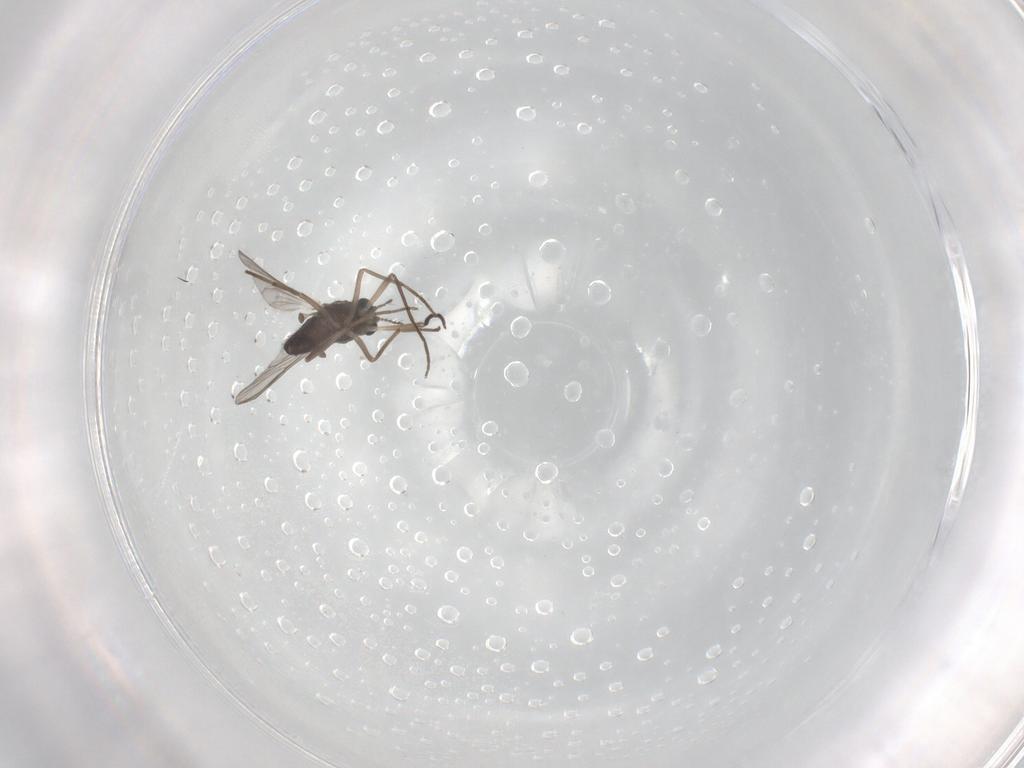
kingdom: Animalia
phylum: Arthropoda
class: Insecta
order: Diptera
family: Chironomidae
